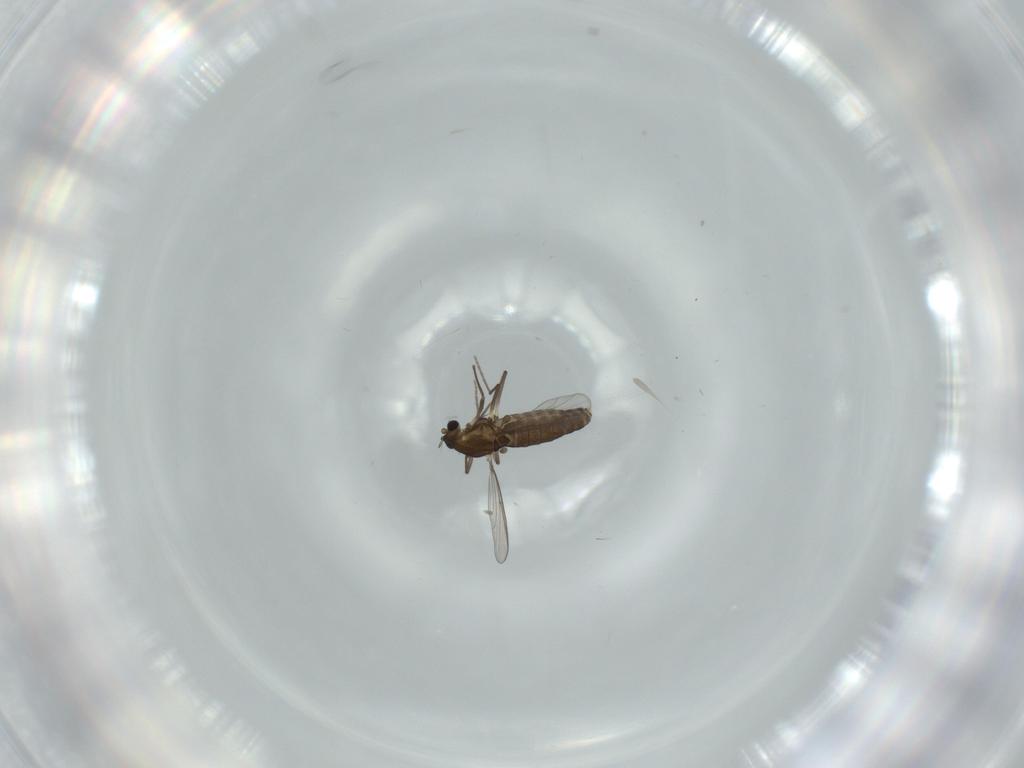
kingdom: Animalia
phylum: Arthropoda
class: Insecta
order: Diptera
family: Chironomidae
